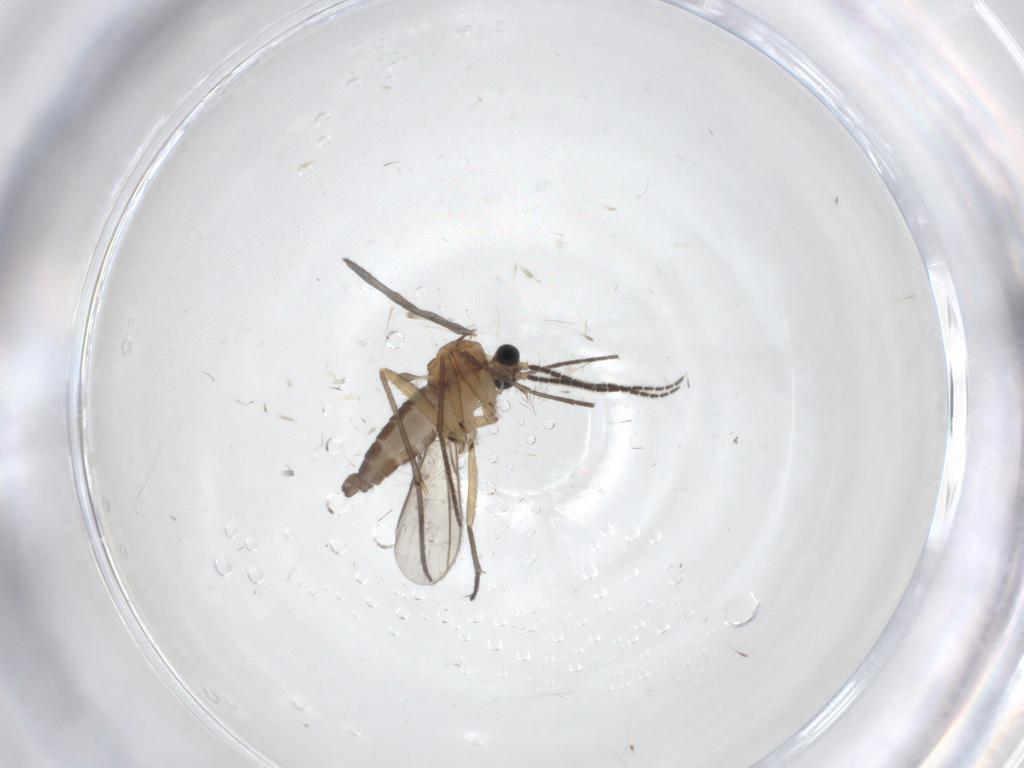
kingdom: Animalia
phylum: Arthropoda
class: Insecta
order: Diptera
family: Sciaridae
